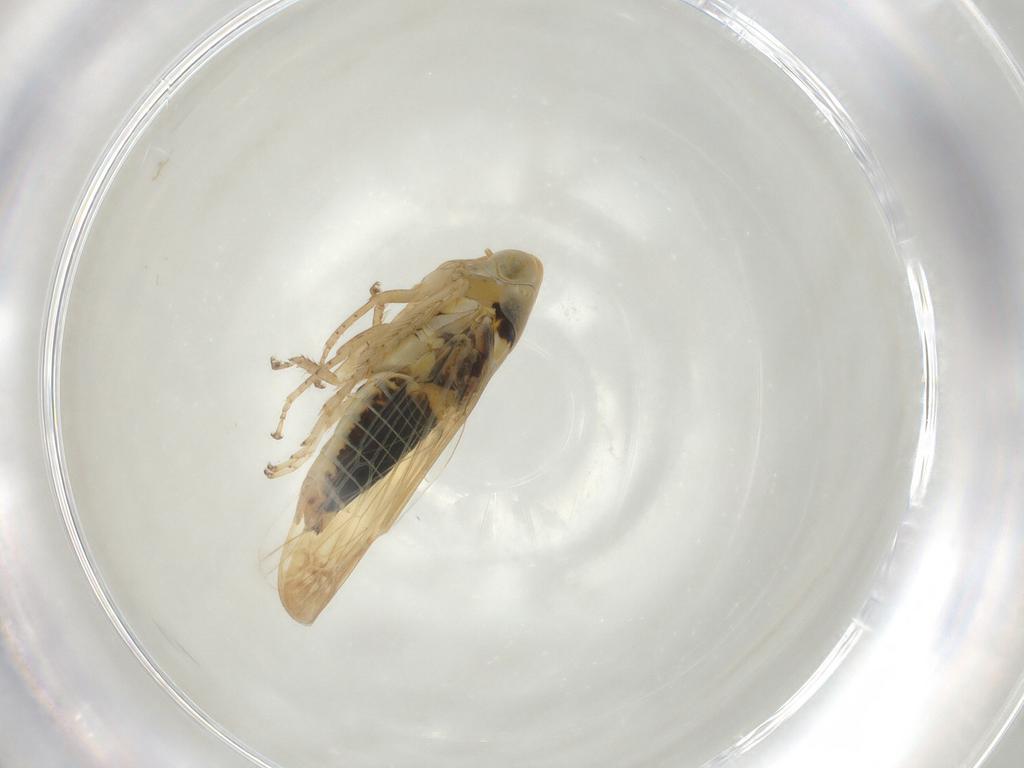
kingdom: Animalia
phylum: Arthropoda
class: Insecta
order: Hemiptera
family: Cicadellidae
